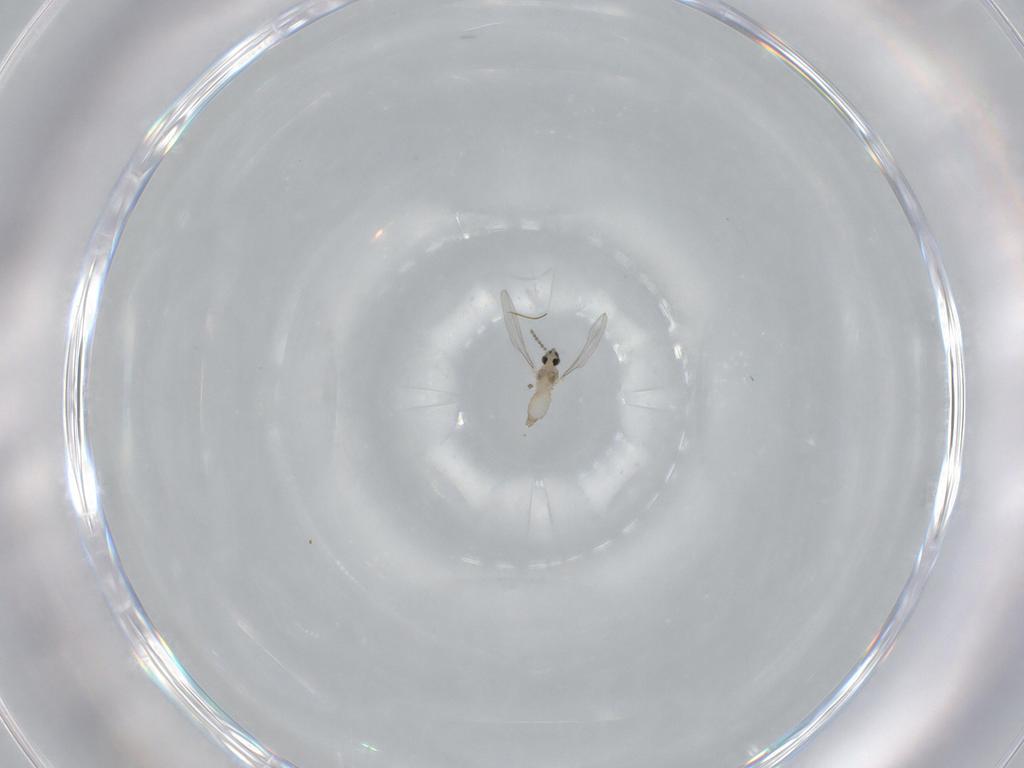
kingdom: Animalia
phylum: Arthropoda
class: Insecta
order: Diptera
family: Cecidomyiidae
